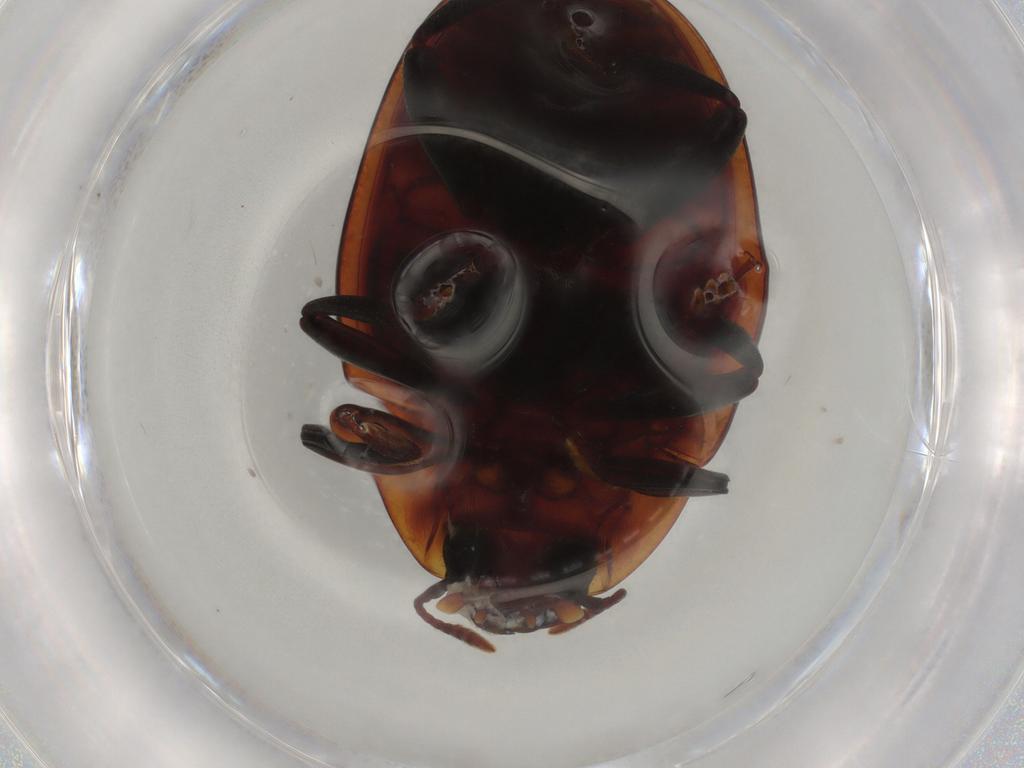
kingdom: Animalia
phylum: Arthropoda
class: Insecta
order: Coleoptera
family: Zopheridae
